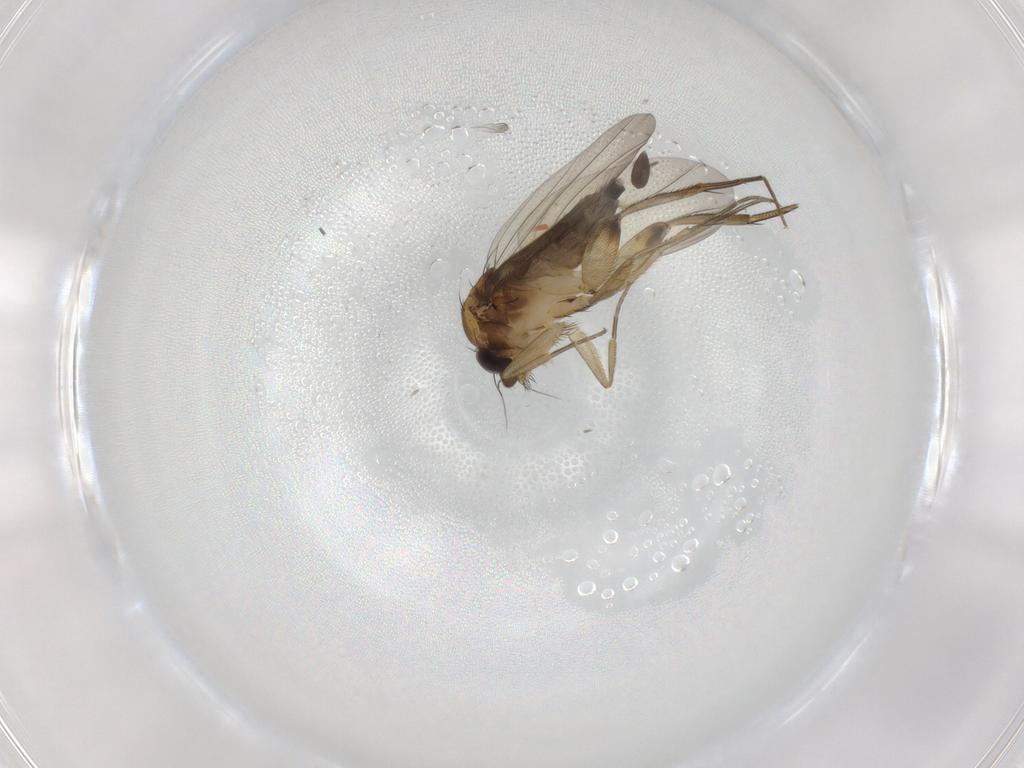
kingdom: Animalia
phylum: Arthropoda
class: Insecta
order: Diptera
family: Phoridae
